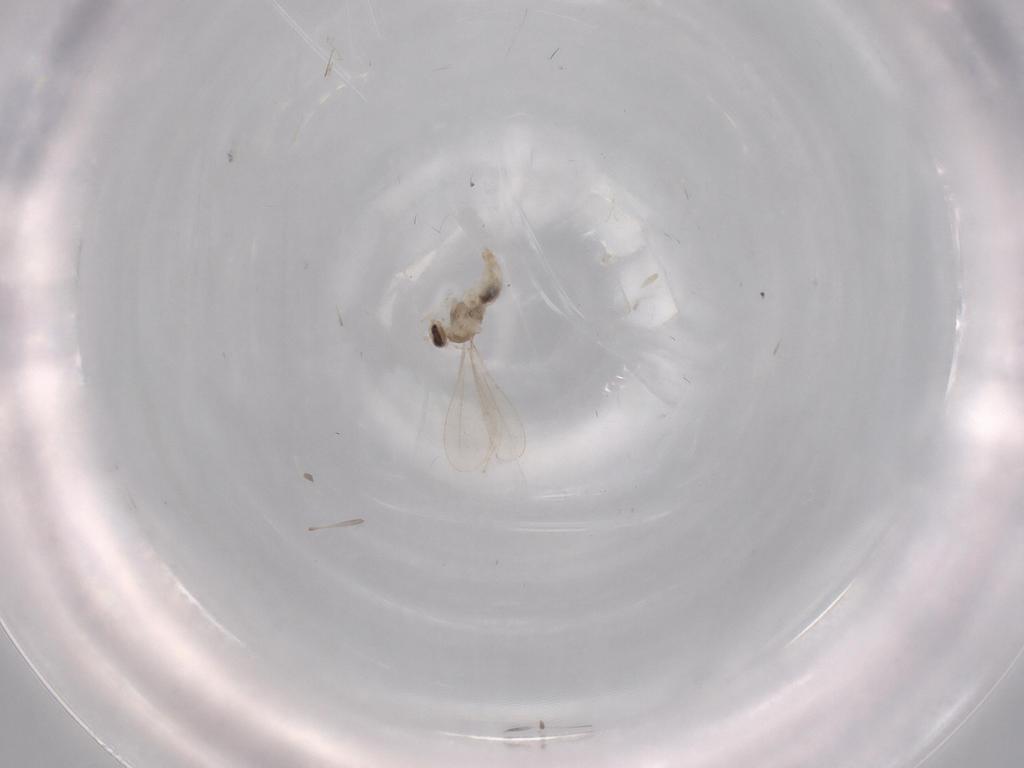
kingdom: Animalia
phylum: Arthropoda
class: Insecta
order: Diptera
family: Cecidomyiidae
